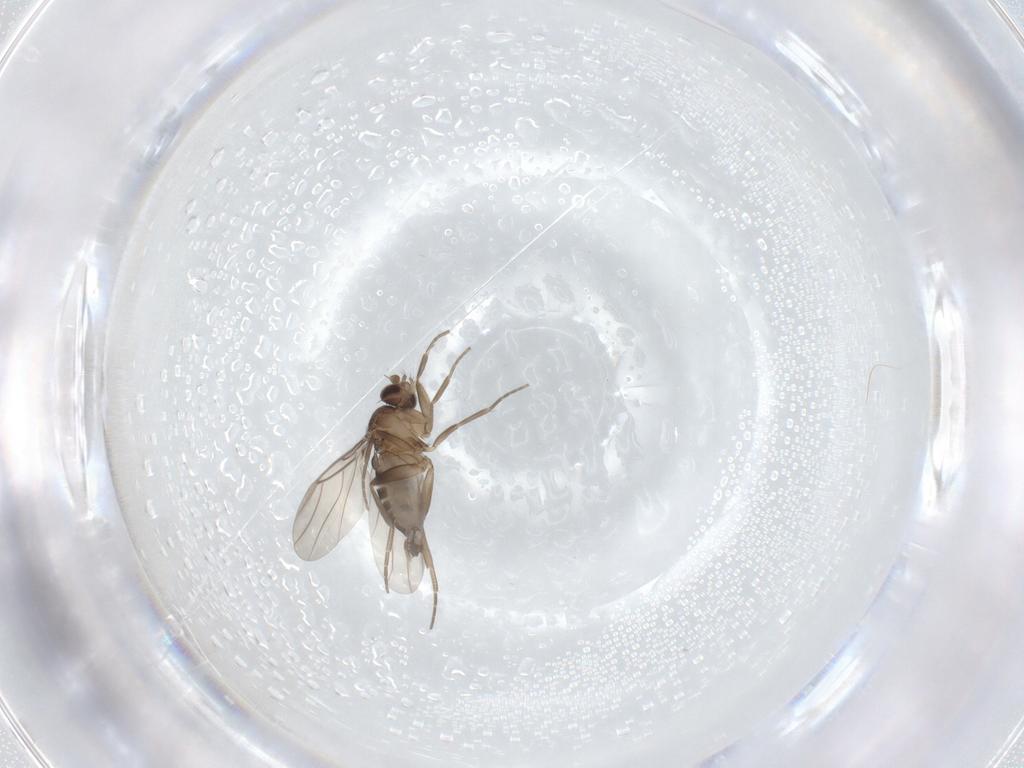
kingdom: Animalia
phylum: Arthropoda
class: Insecta
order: Diptera
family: Phoridae
